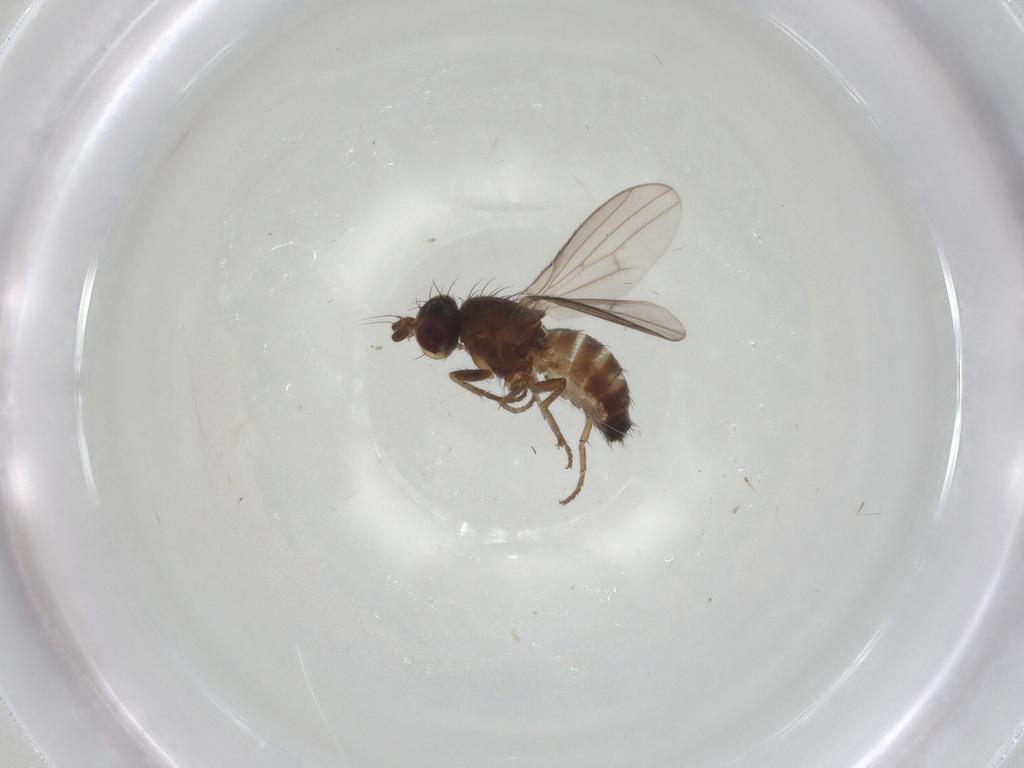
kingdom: Animalia
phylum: Arthropoda
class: Insecta
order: Diptera
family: Heleomyzidae
